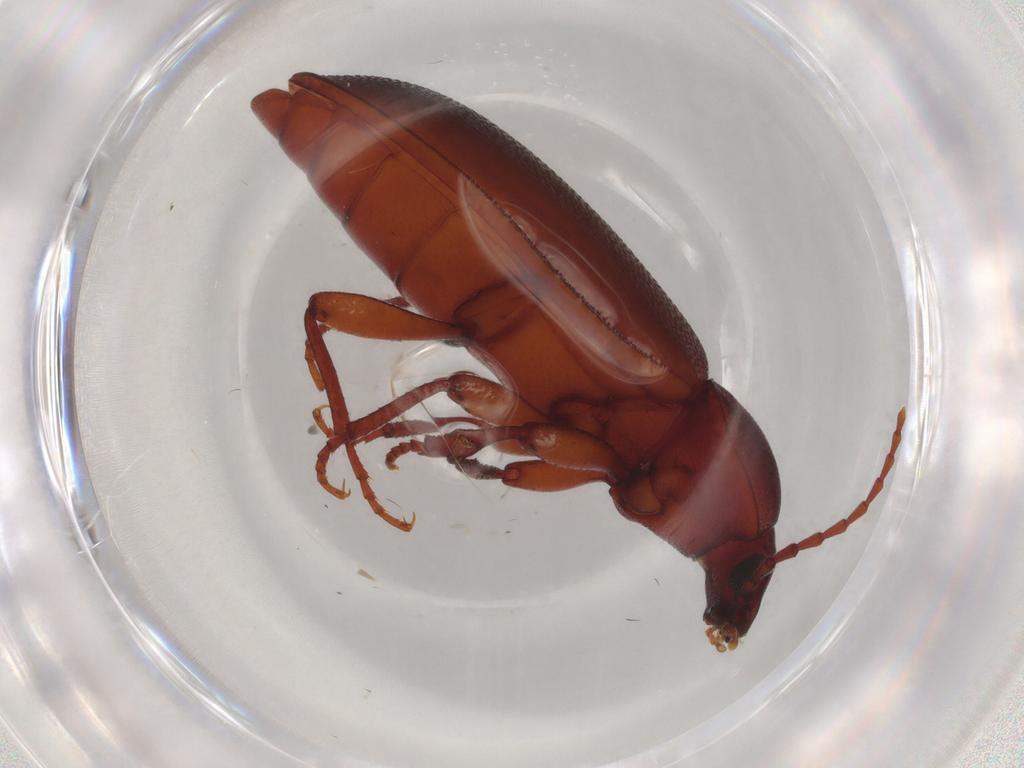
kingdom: Animalia
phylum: Arthropoda
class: Insecta
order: Coleoptera
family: Tenebrionidae
